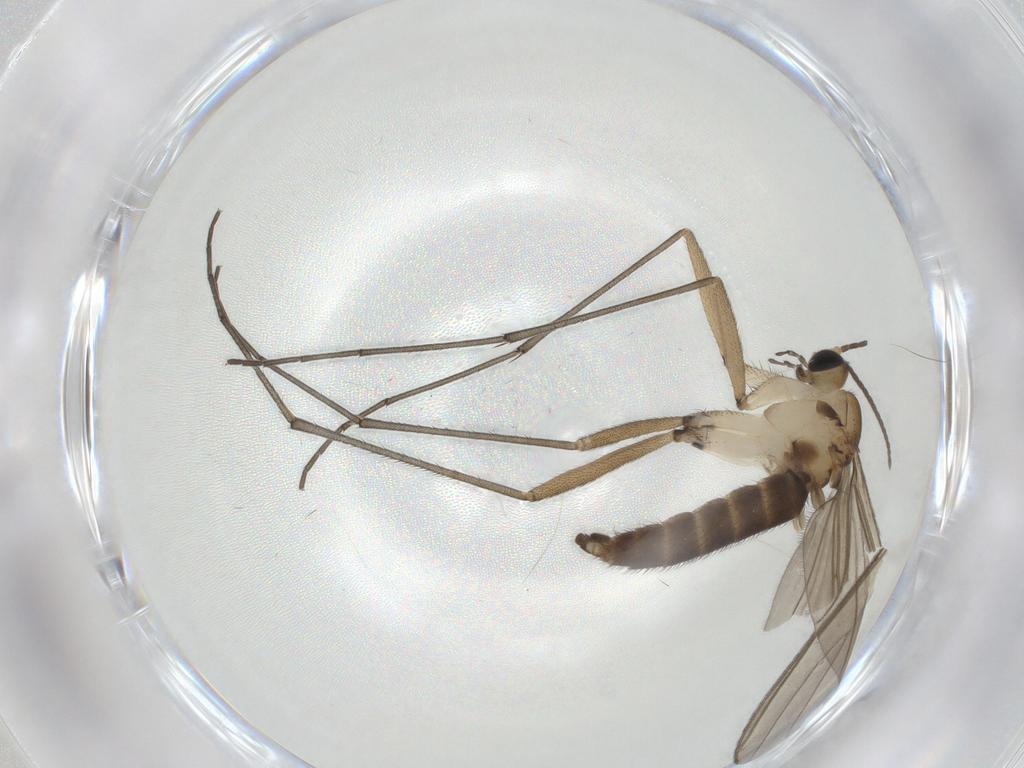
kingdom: Animalia
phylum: Arthropoda
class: Insecta
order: Diptera
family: Sciaridae
